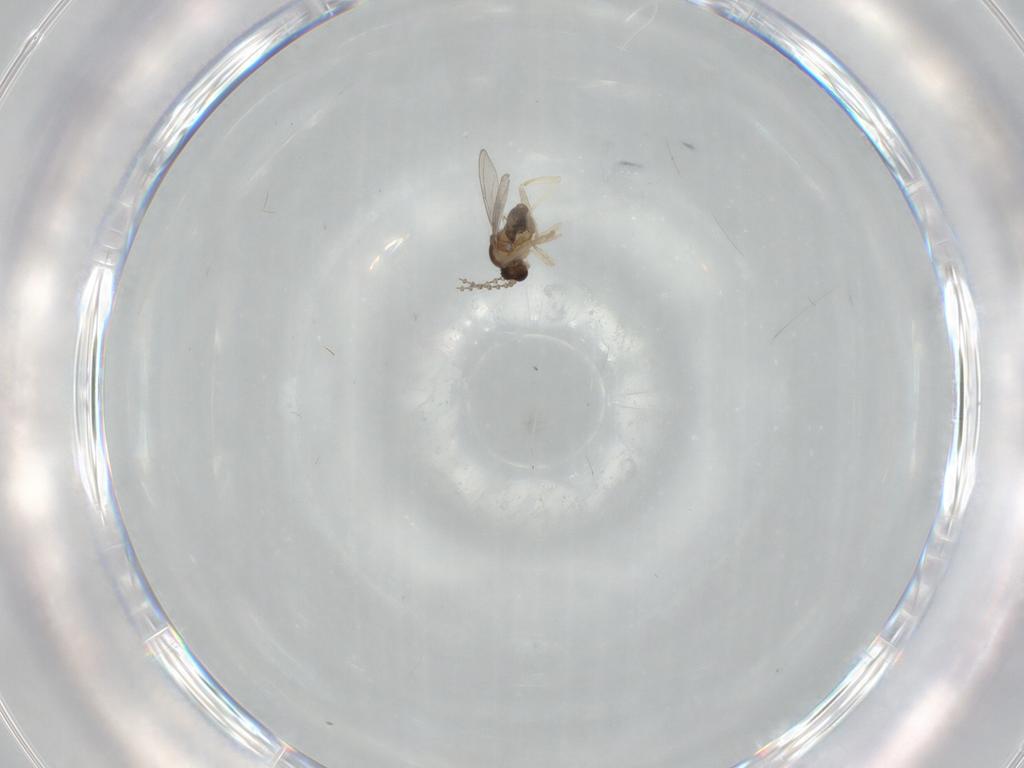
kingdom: Animalia
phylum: Arthropoda
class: Insecta
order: Diptera
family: Cecidomyiidae
